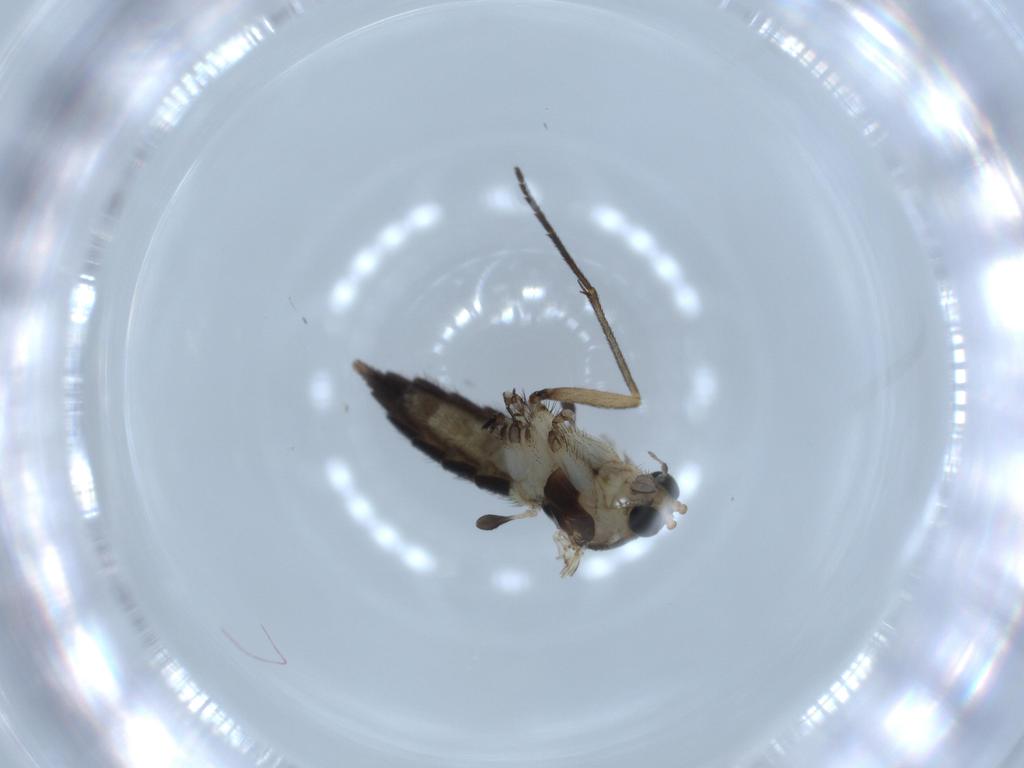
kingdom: Animalia
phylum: Arthropoda
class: Insecta
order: Diptera
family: Sciaridae
